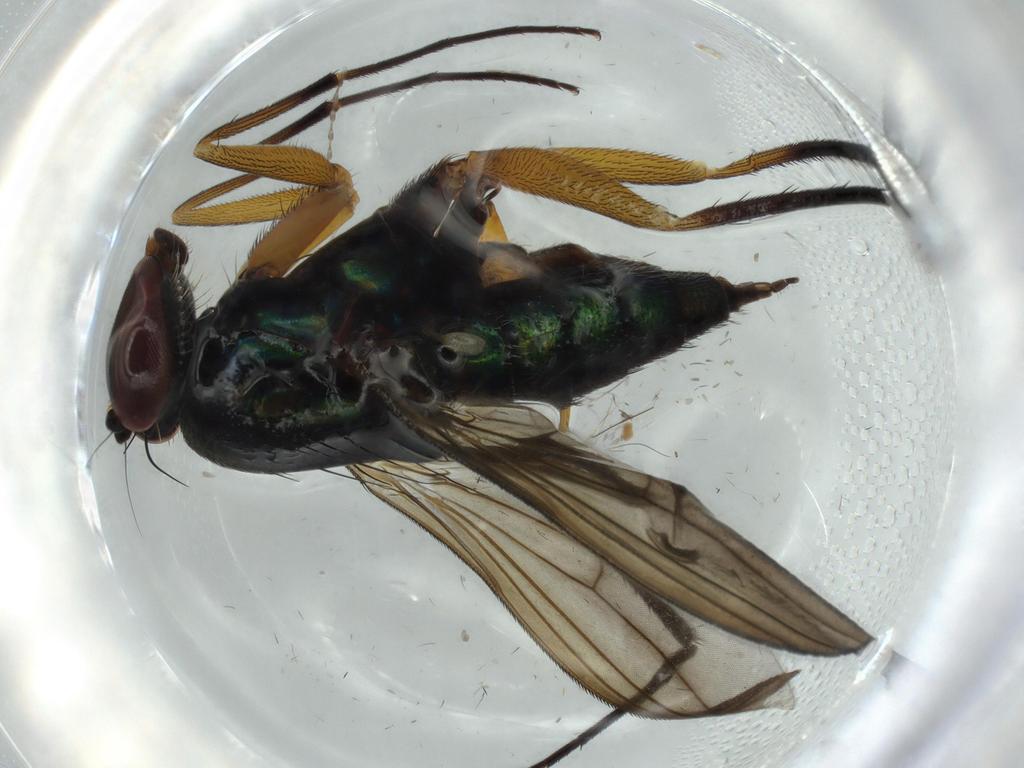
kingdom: Animalia
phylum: Arthropoda
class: Insecta
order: Diptera
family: Dolichopodidae
